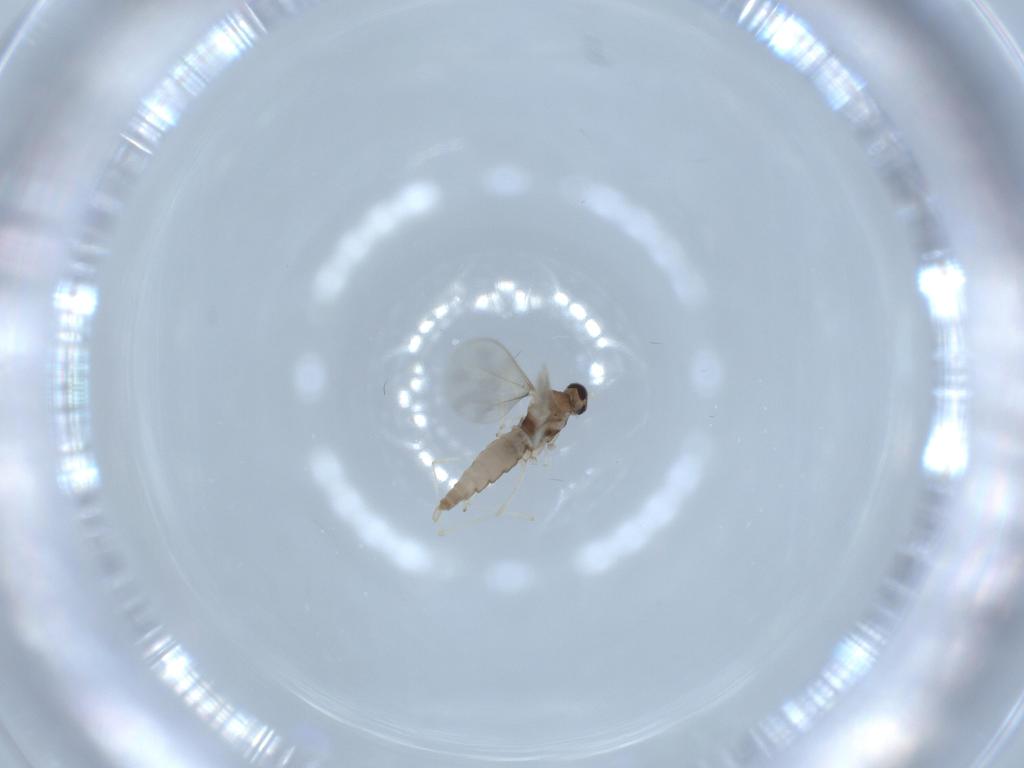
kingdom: Animalia
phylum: Arthropoda
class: Insecta
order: Diptera
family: Cecidomyiidae
